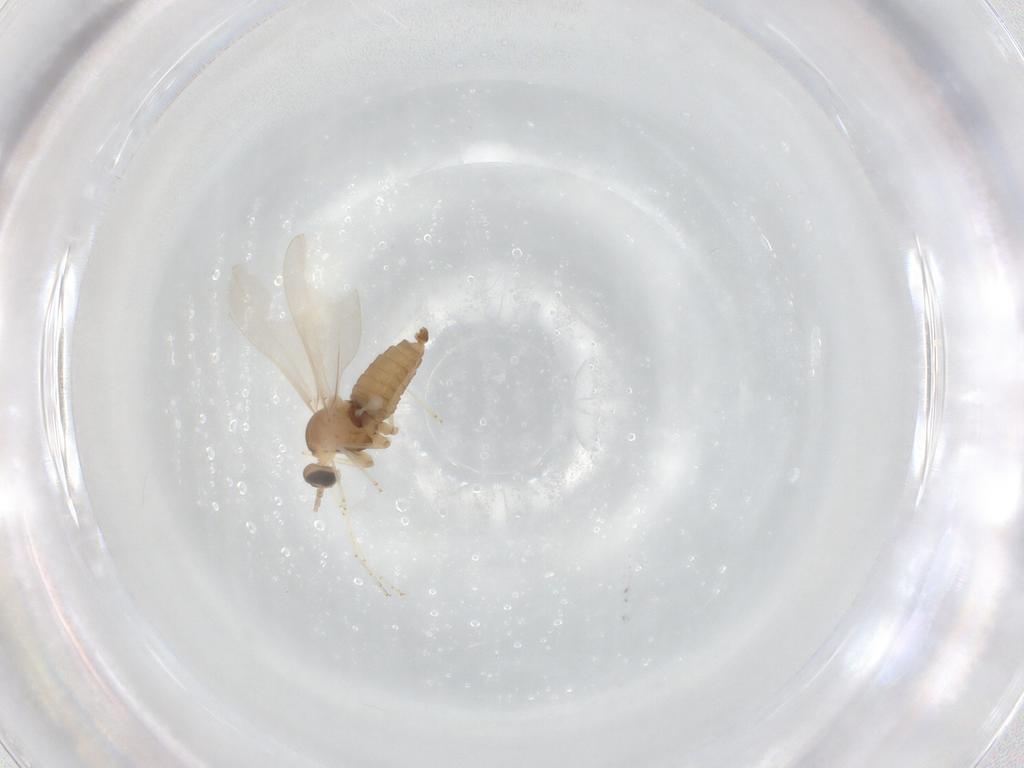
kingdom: Animalia
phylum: Arthropoda
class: Insecta
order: Diptera
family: Cecidomyiidae
